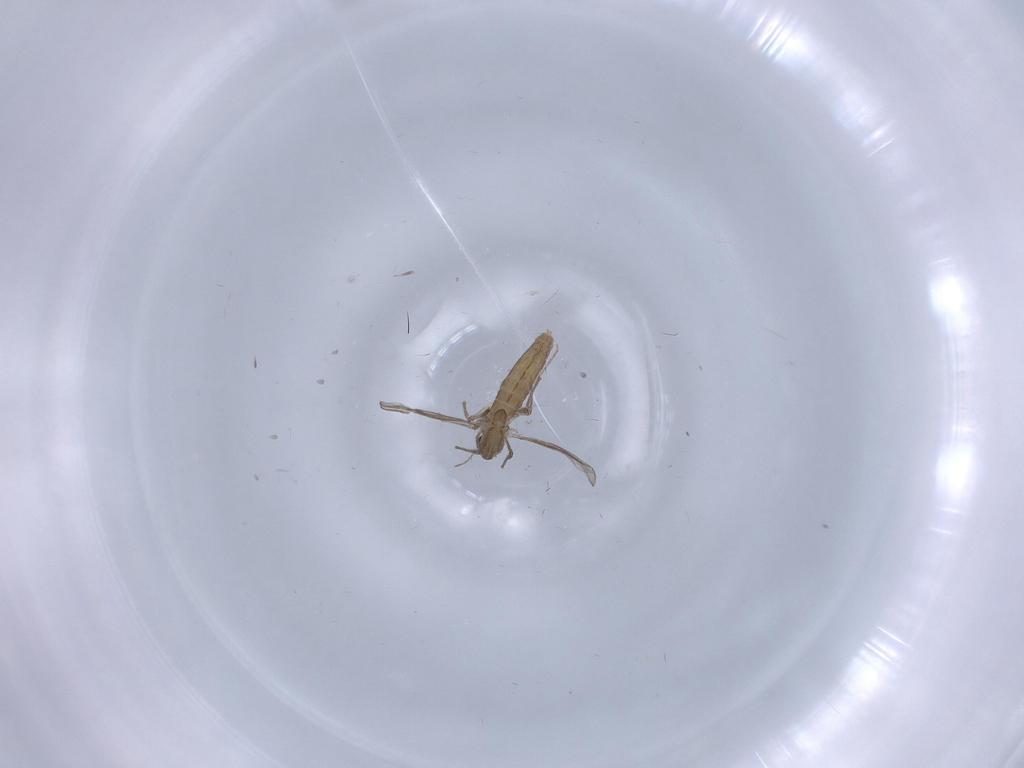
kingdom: Animalia
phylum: Arthropoda
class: Insecta
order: Diptera
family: Chironomidae
